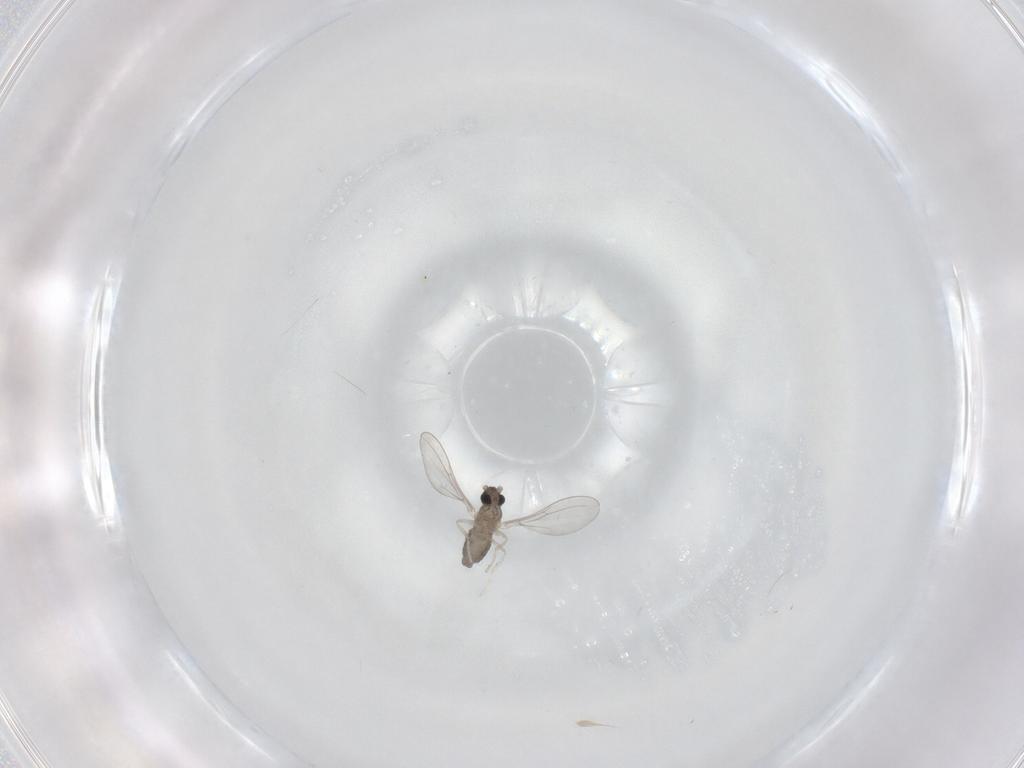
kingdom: Animalia
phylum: Arthropoda
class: Insecta
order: Diptera
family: Cecidomyiidae
